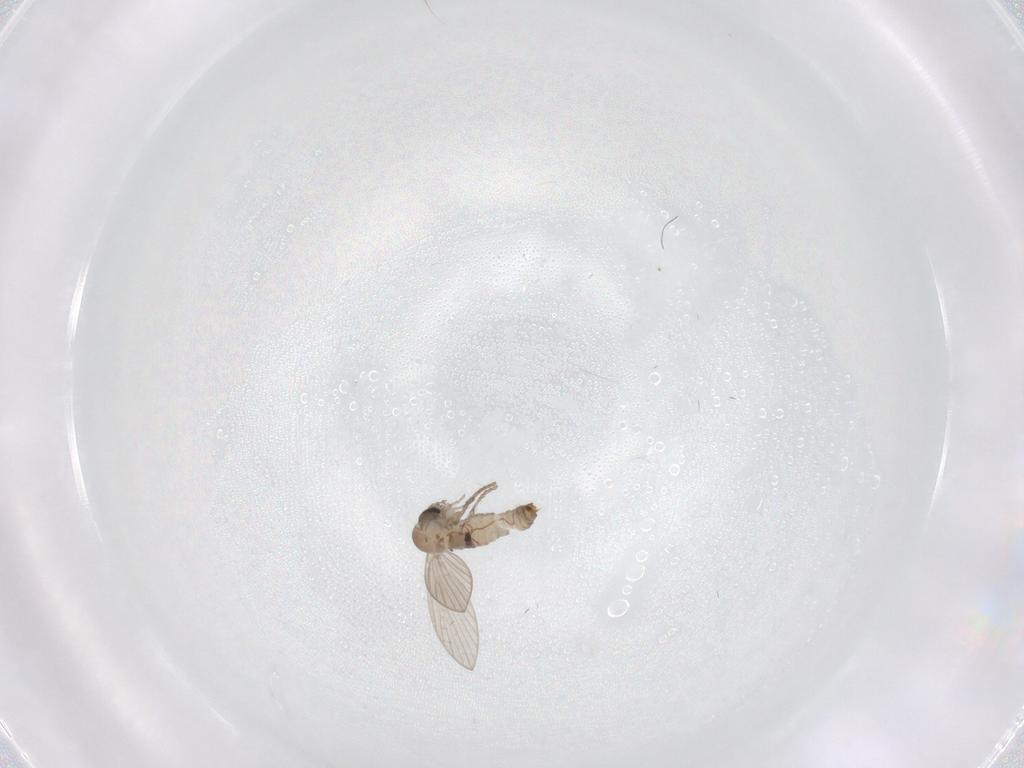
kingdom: Animalia
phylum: Arthropoda
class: Insecta
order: Diptera
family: Psychodidae
